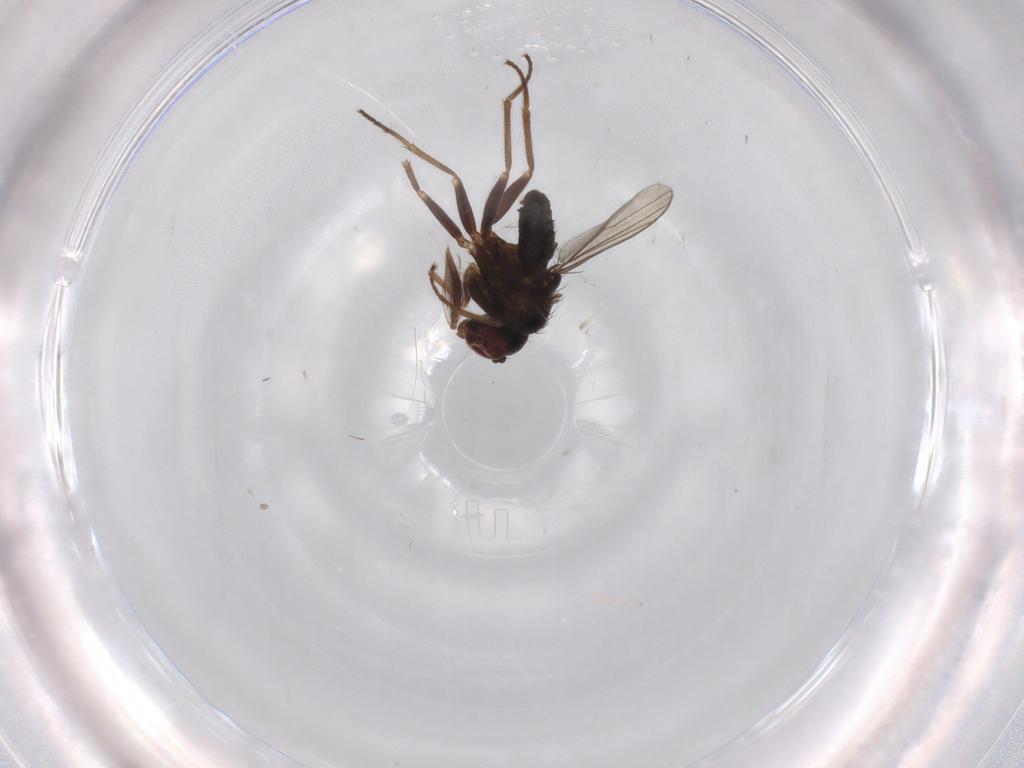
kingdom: Animalia
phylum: Arthropoda
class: Insecta
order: Diptera
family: Dolichopodidae
